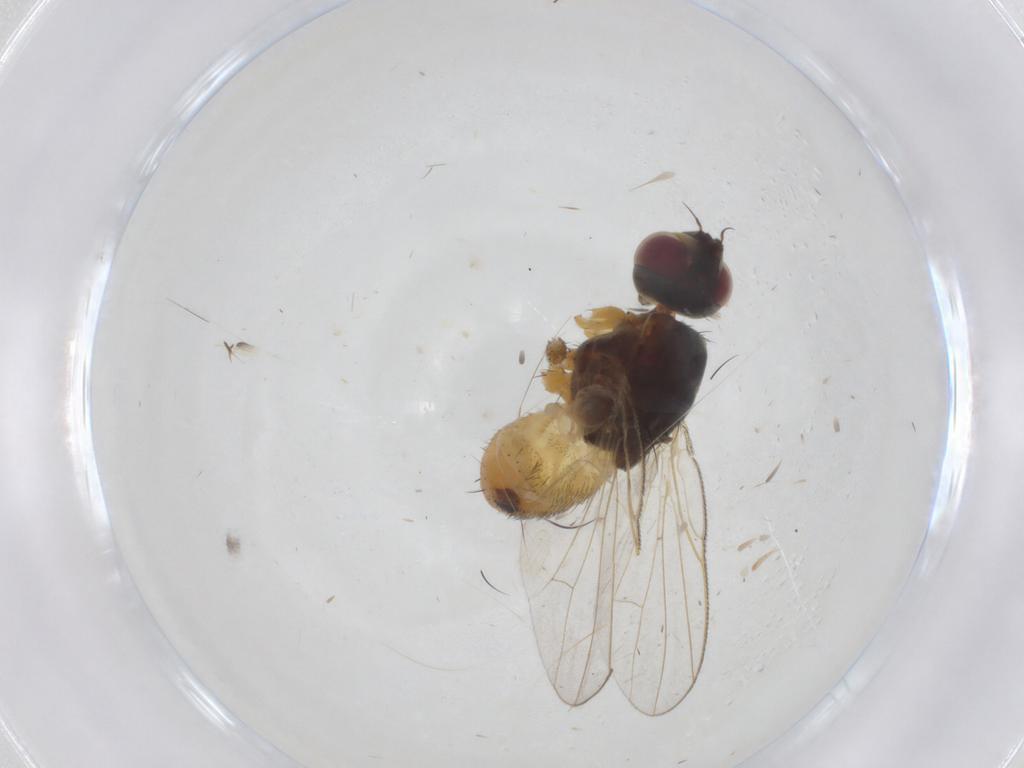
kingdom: Animalia
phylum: Arthropoda
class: Insecta
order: Diptera
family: Muscidae
